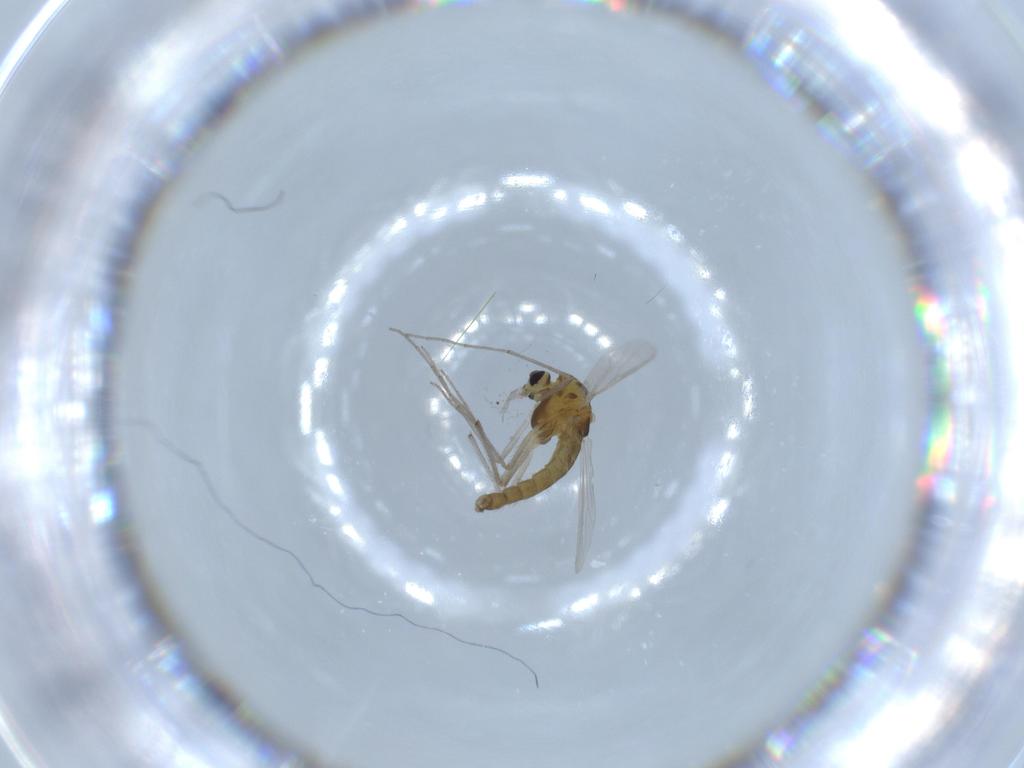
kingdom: Animalia
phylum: Arthropoda
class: Insecta
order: Diptera
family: Chironomidae
